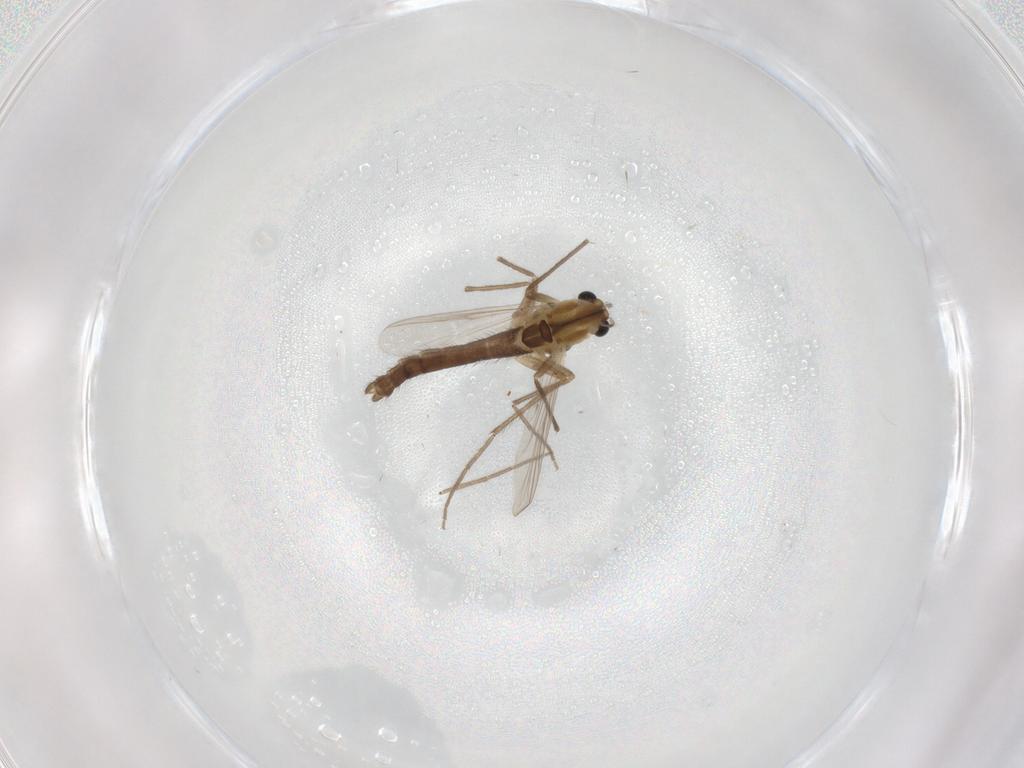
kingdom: Animalia
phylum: Arthropoda
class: Insecta
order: Diptera
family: Chironomidae
